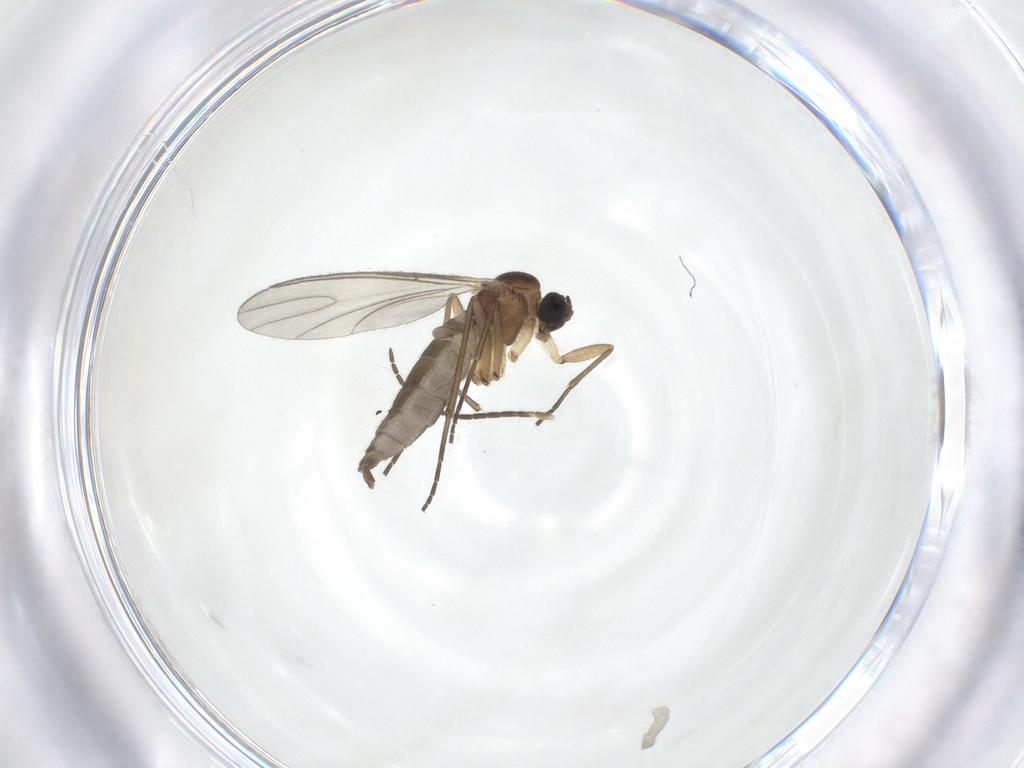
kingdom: Animalia
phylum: Arthropoda
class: Insecta
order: Diptera
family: Sciaridae
